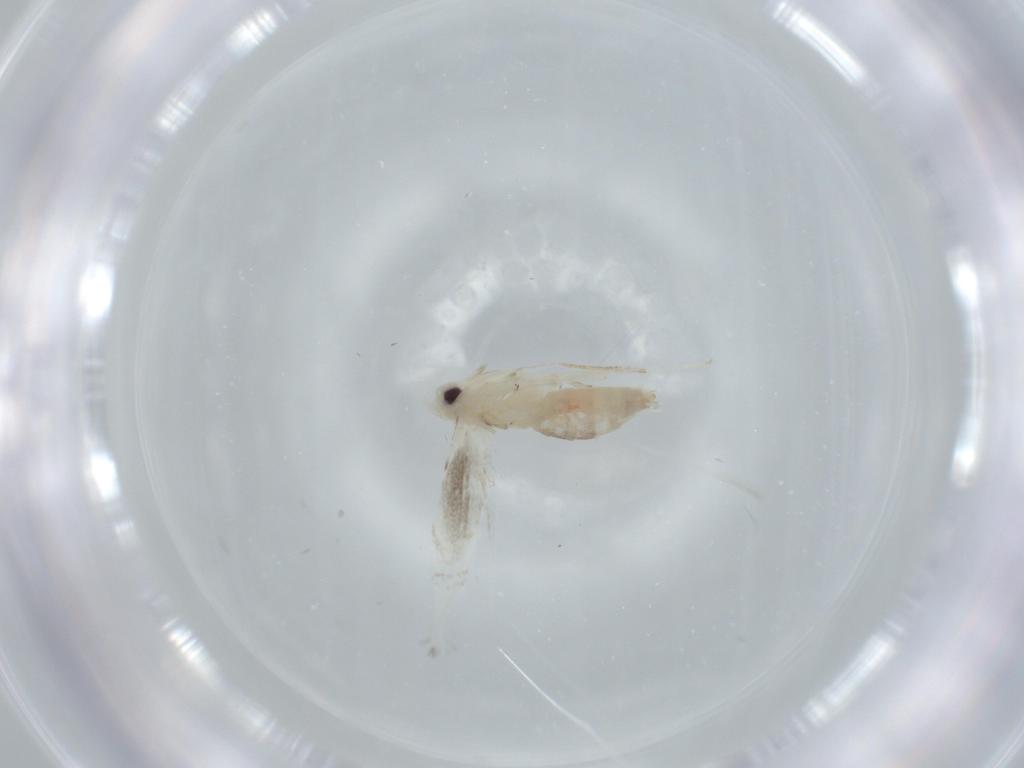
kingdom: Animalia
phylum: Arthropoda
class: Insecta
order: Lepidoptera
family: Gracillariidae
